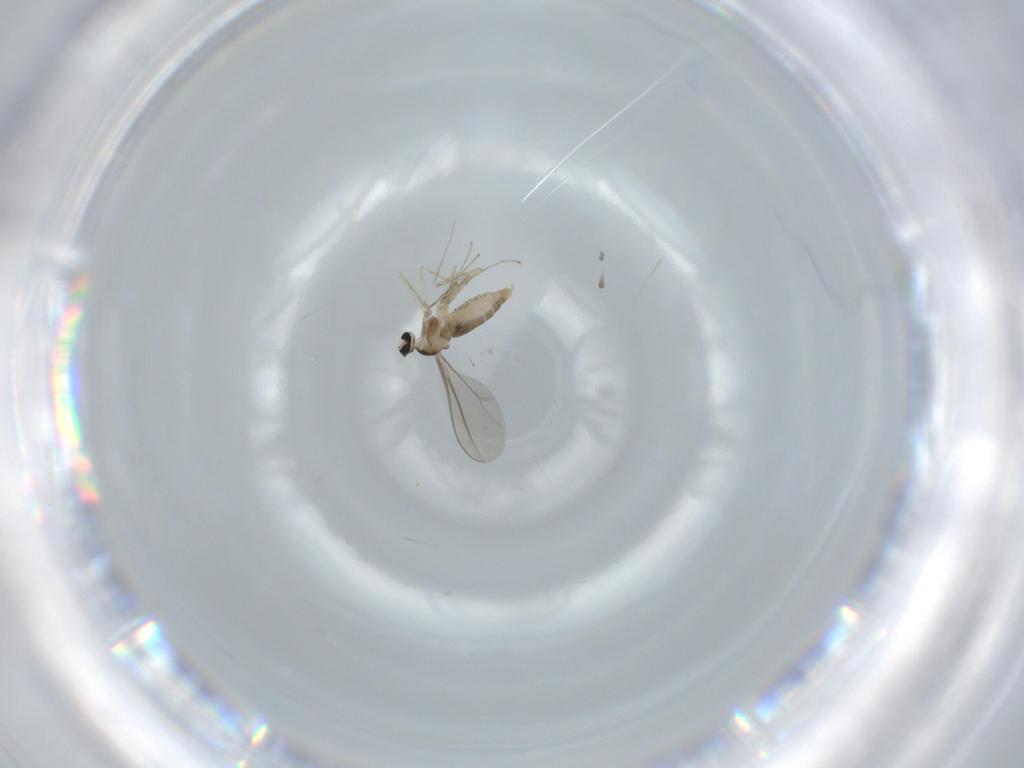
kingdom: Animalia
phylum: Arthropoda
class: Insecta
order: Diptera
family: Cecidomyiidae
